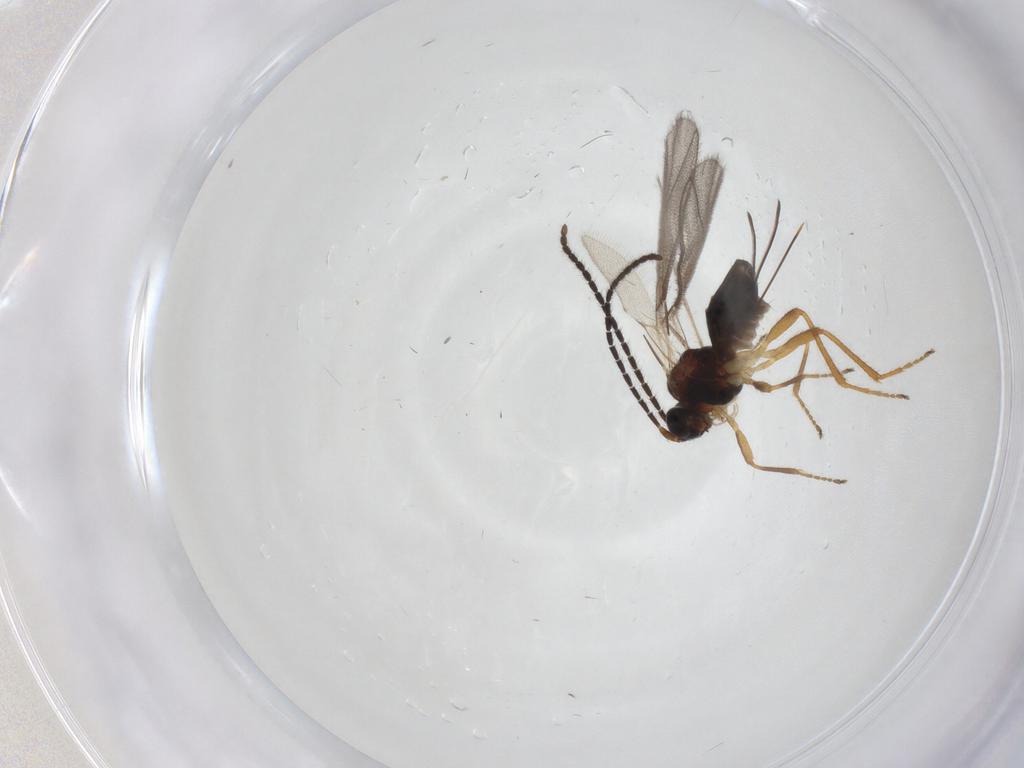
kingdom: Animalia
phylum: Arthropoda
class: Insecta
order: Hymenoptera
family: Braconidae
